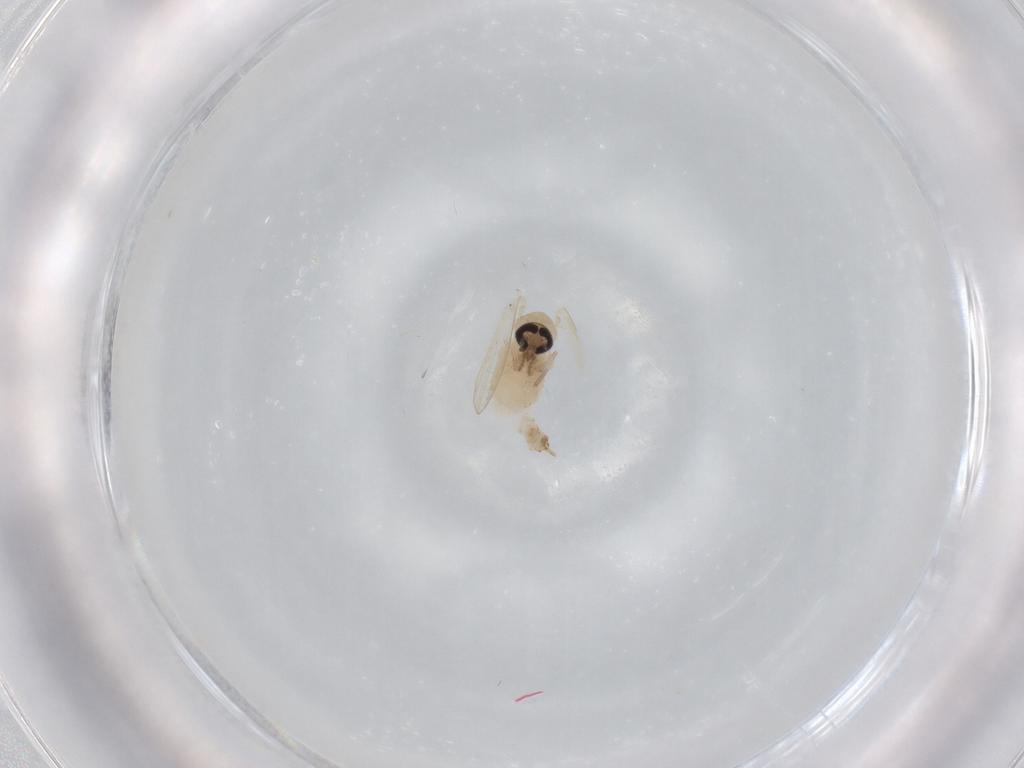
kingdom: Animalia
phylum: Arthropoda
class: Insecta
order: Diptera
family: Psychodidae
